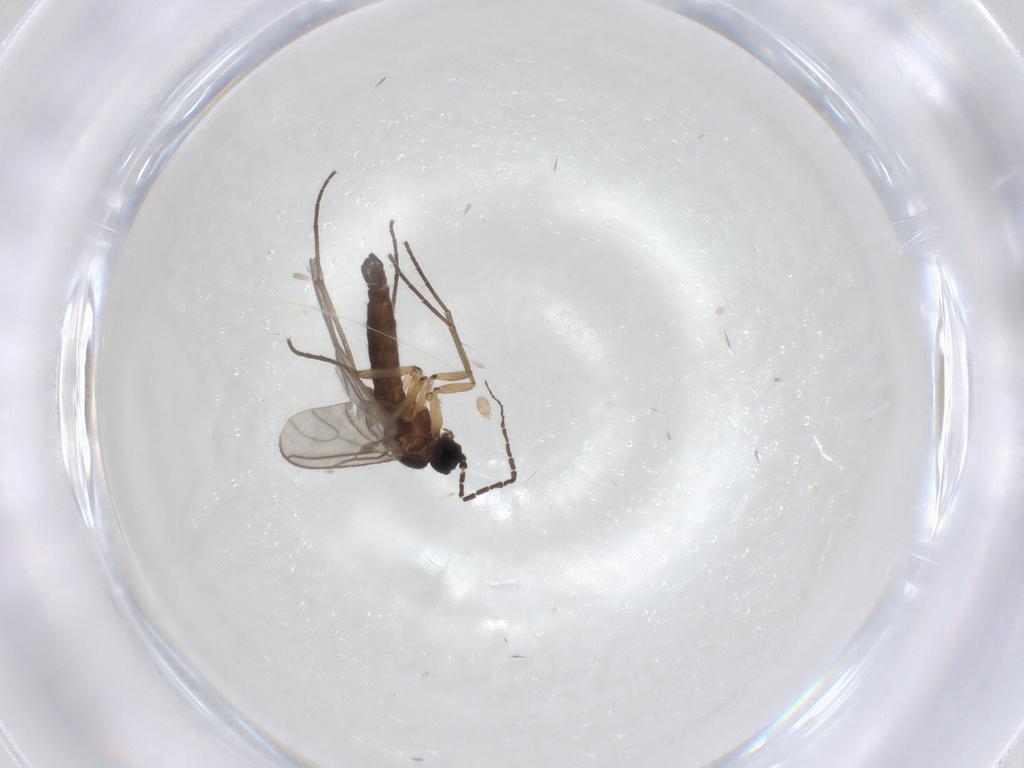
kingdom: Animalia
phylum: Arthropoda
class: Insecta
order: Diptera
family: Sciaridae
